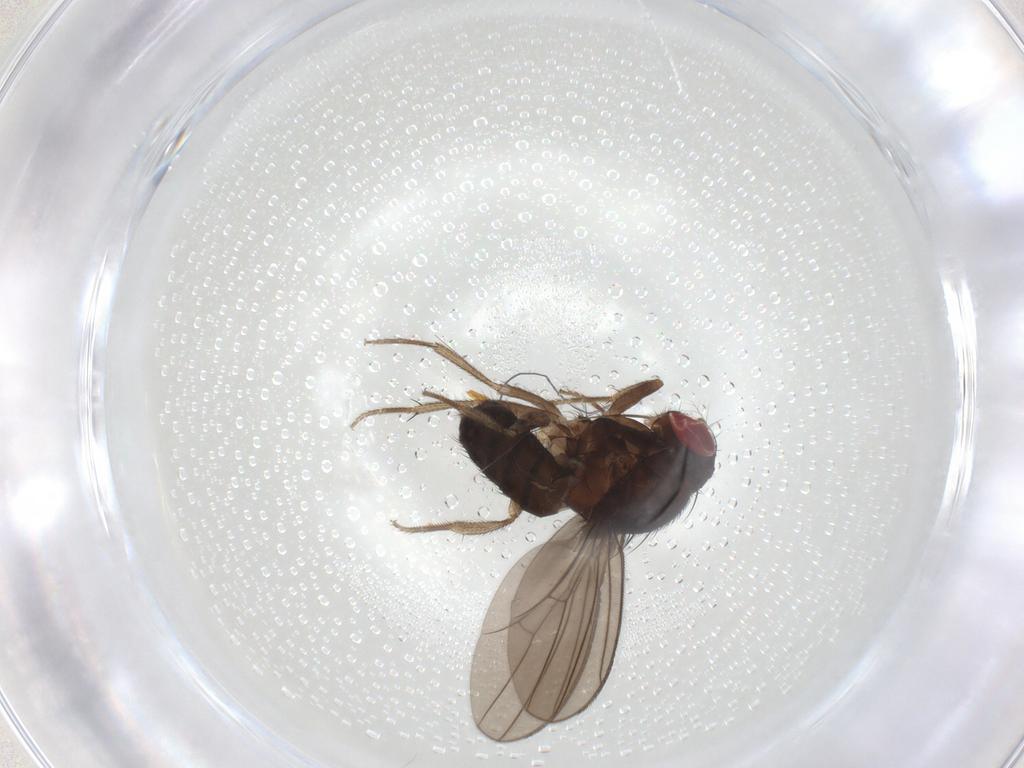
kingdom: Animalia
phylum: Arthropoda
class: Insecta
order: Diptera
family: Drosophilidae
